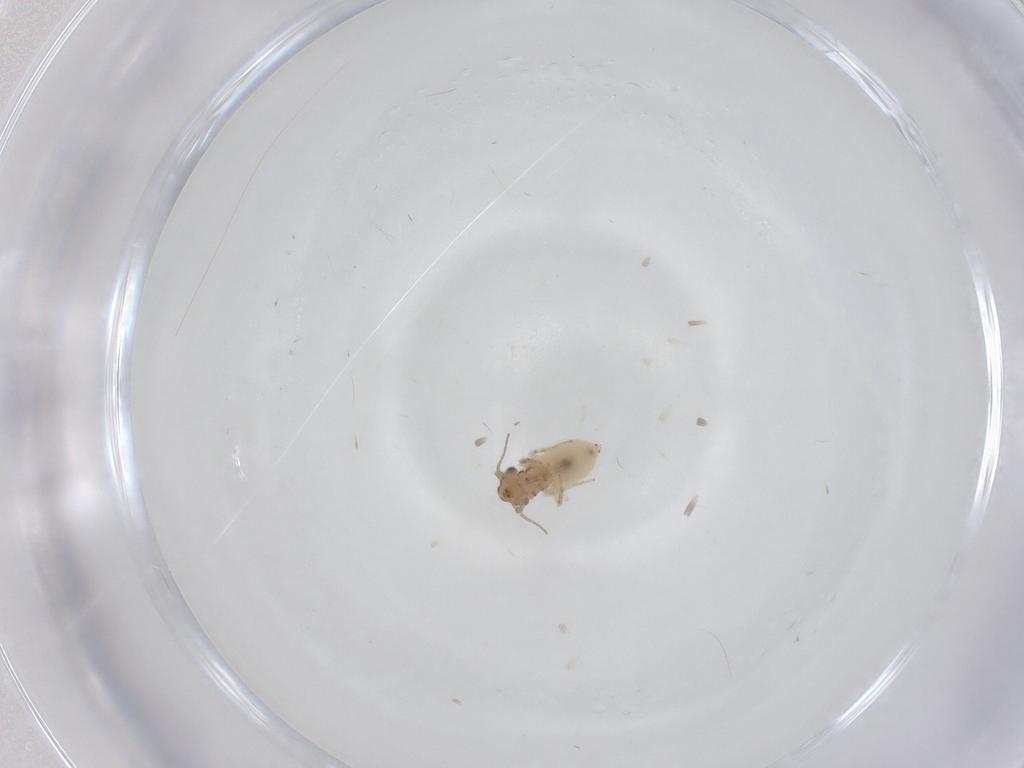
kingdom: Animalia
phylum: Arthropoda
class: Insecta
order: Psocodea
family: Lepidopsocidae
